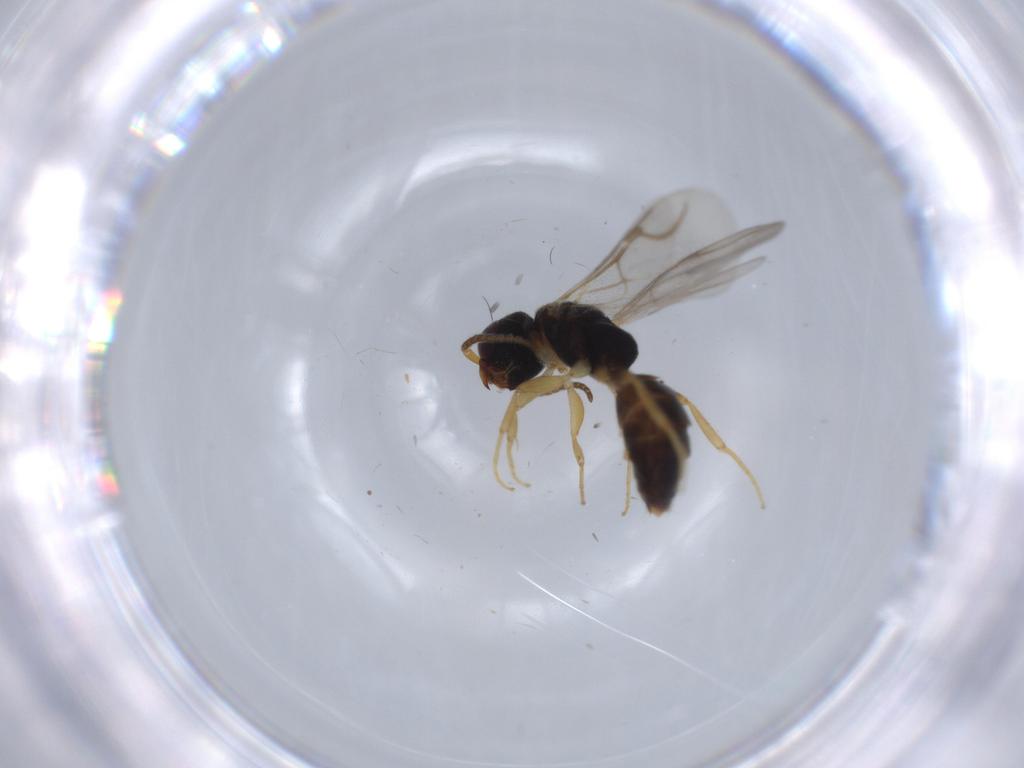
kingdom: Animalia
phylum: Arthropoda
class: Insecta
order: Hymenoptera
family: Bethylidae
